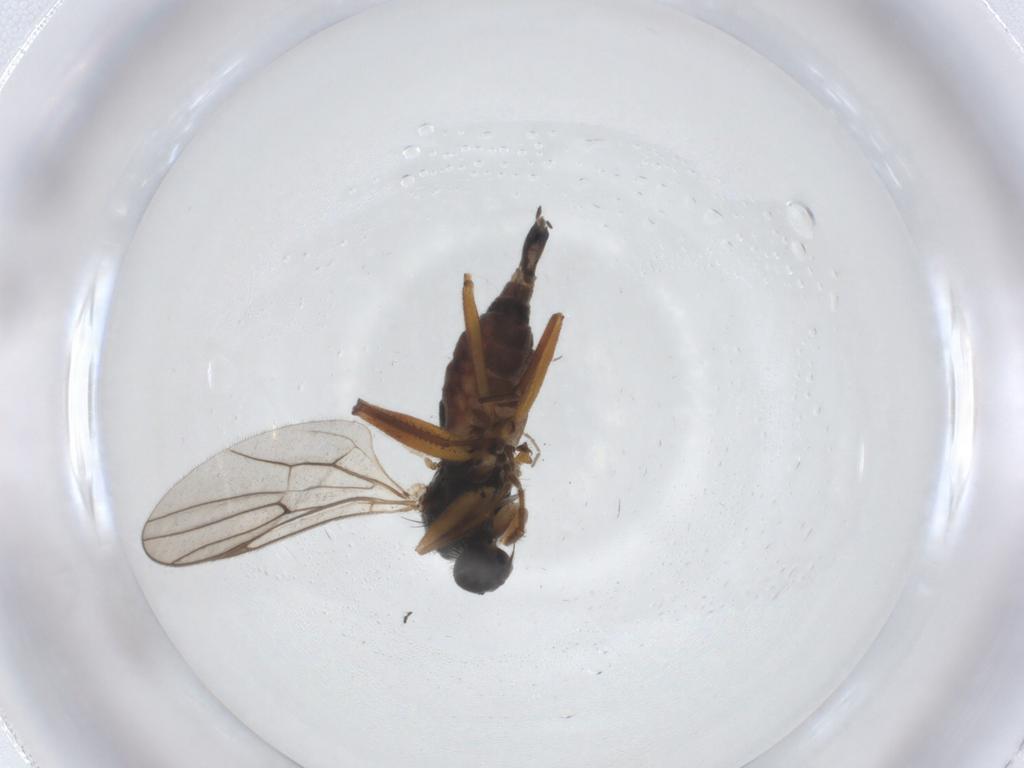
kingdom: Animalia
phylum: Arthropoda
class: Insecta
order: Diptera
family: Hybotidae
